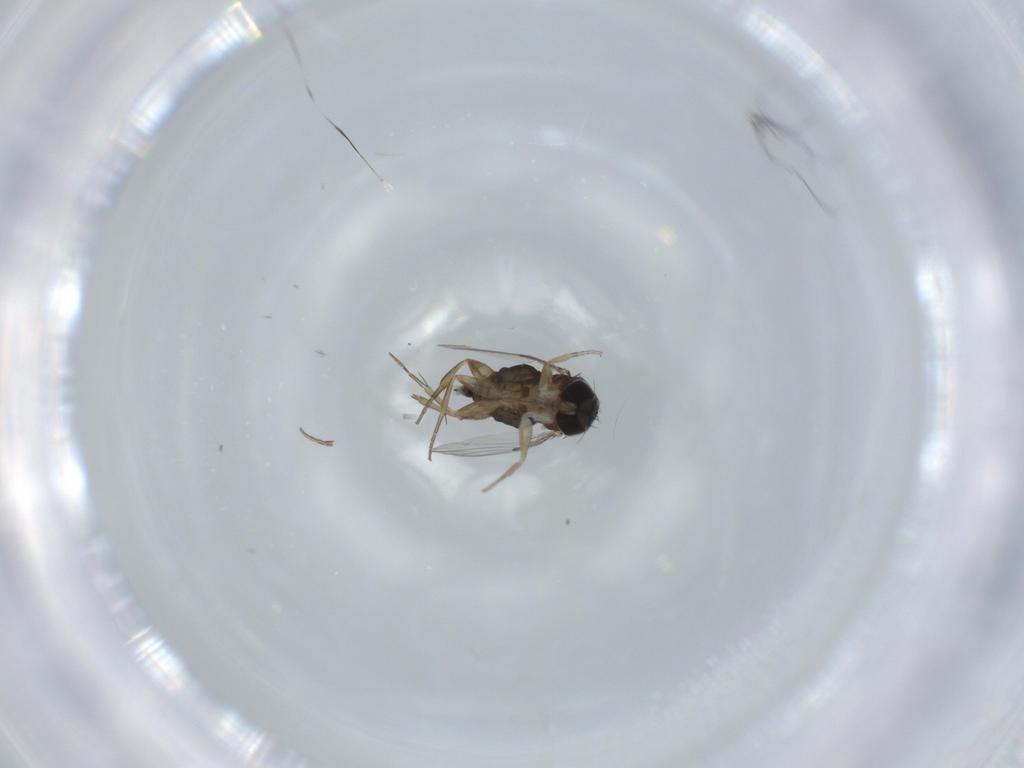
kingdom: Animalia
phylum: Arthropoda
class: Insecta
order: Diptera
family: Phoridae
